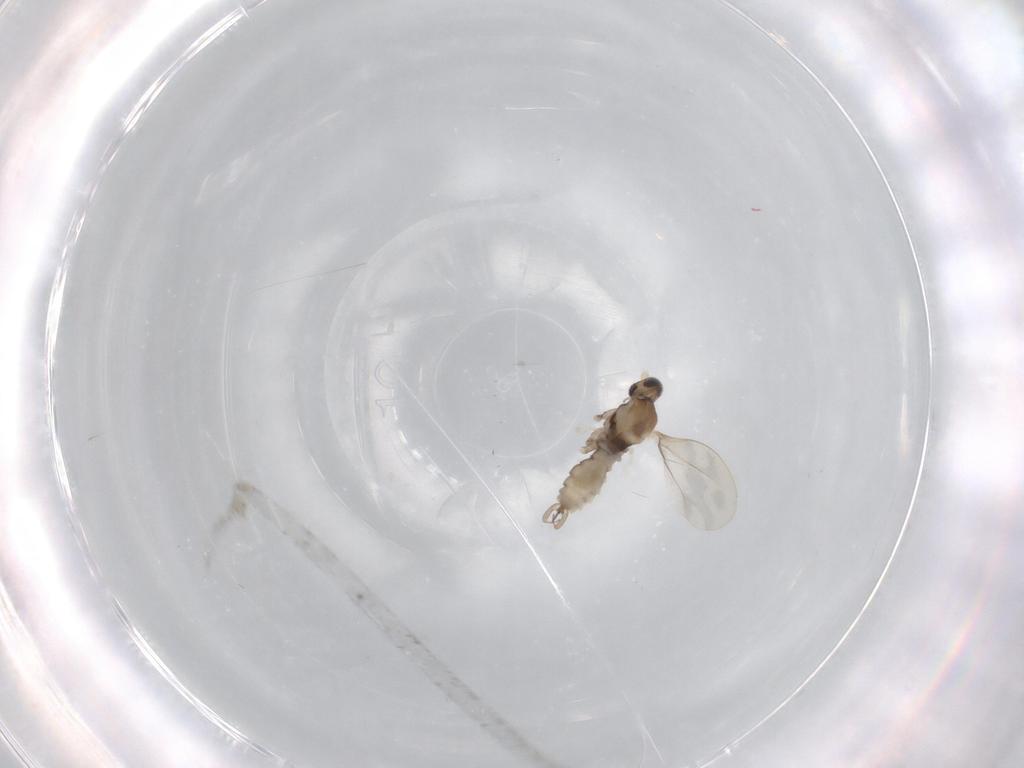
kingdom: Animalia
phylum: Arthropoda
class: Insecta
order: Diptera
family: Cecidomyiidae
